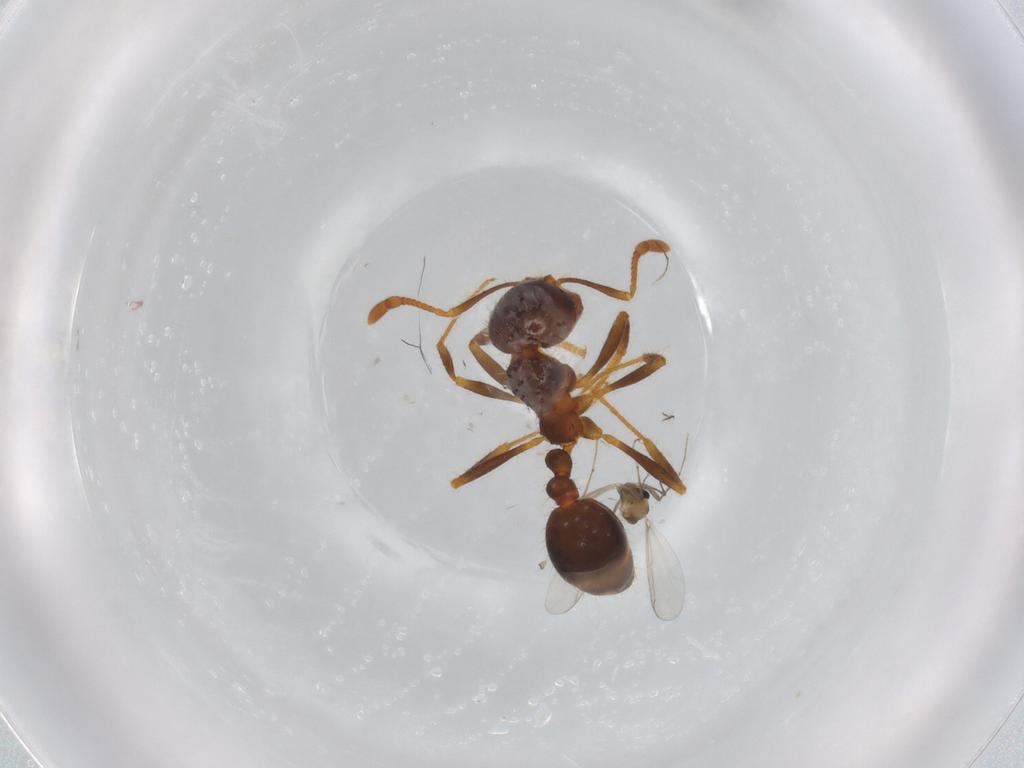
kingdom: Animalia
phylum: Arthropoda
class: Insecta
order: Diptera
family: Chironomidae
